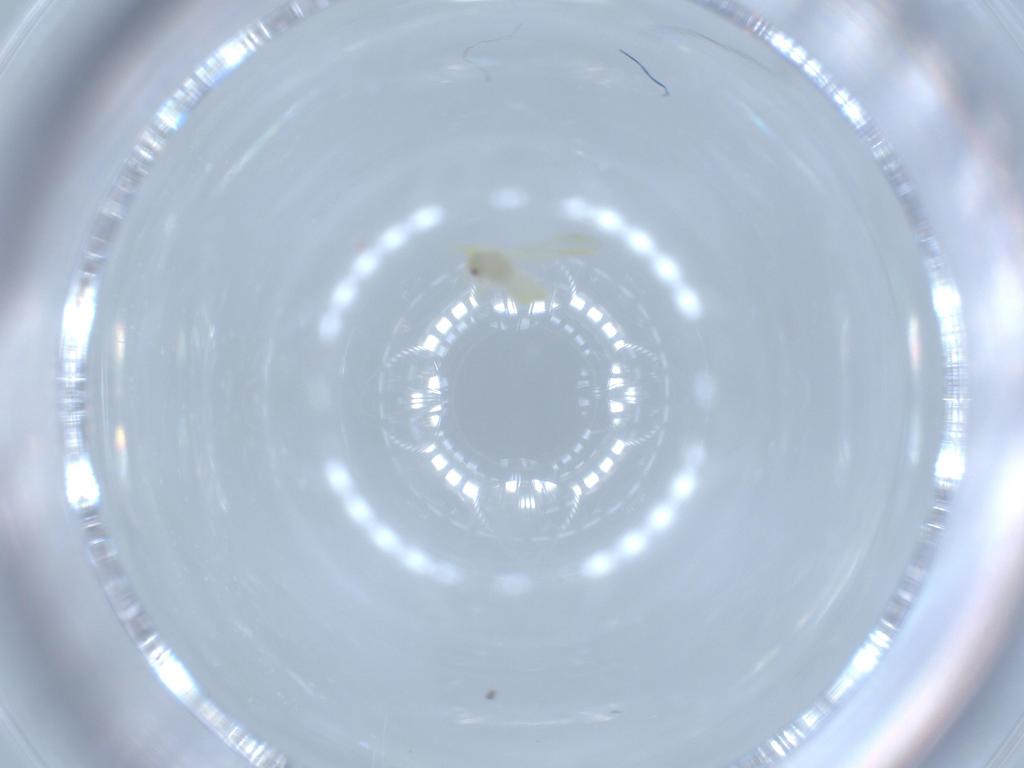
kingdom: Animalia
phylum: Arthropoda
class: Insecta
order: Hemiptera
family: Aleyrodidae
